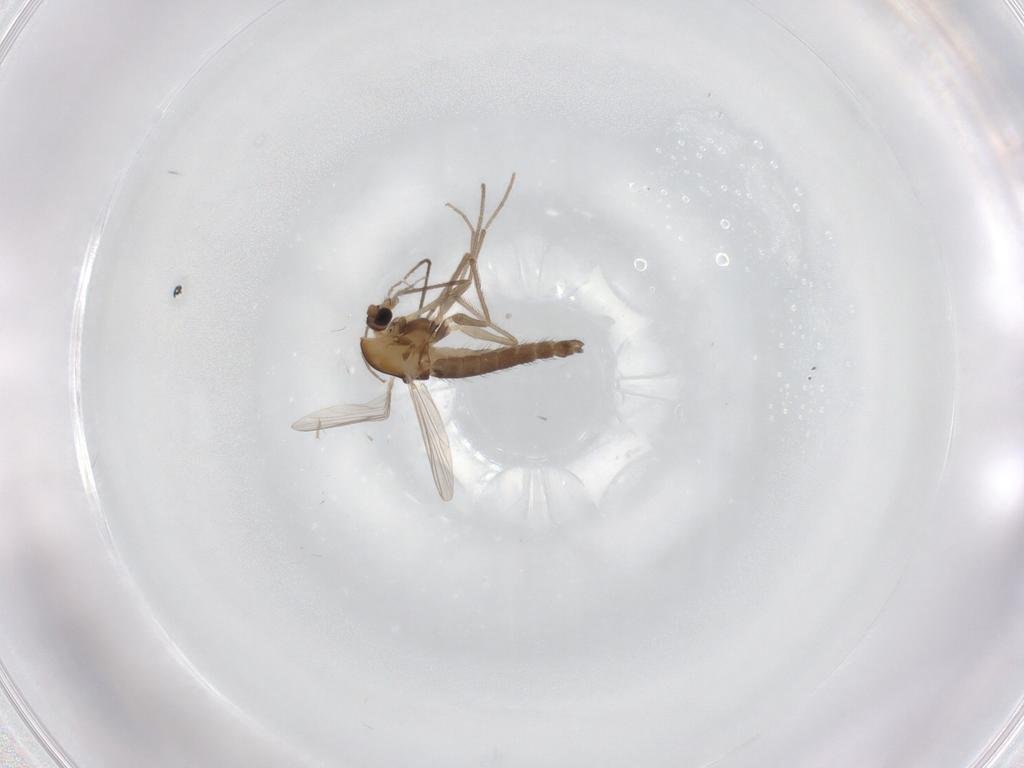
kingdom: Animalia
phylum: Arthropoda
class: Insecta
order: Diptera
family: Chironomidae
